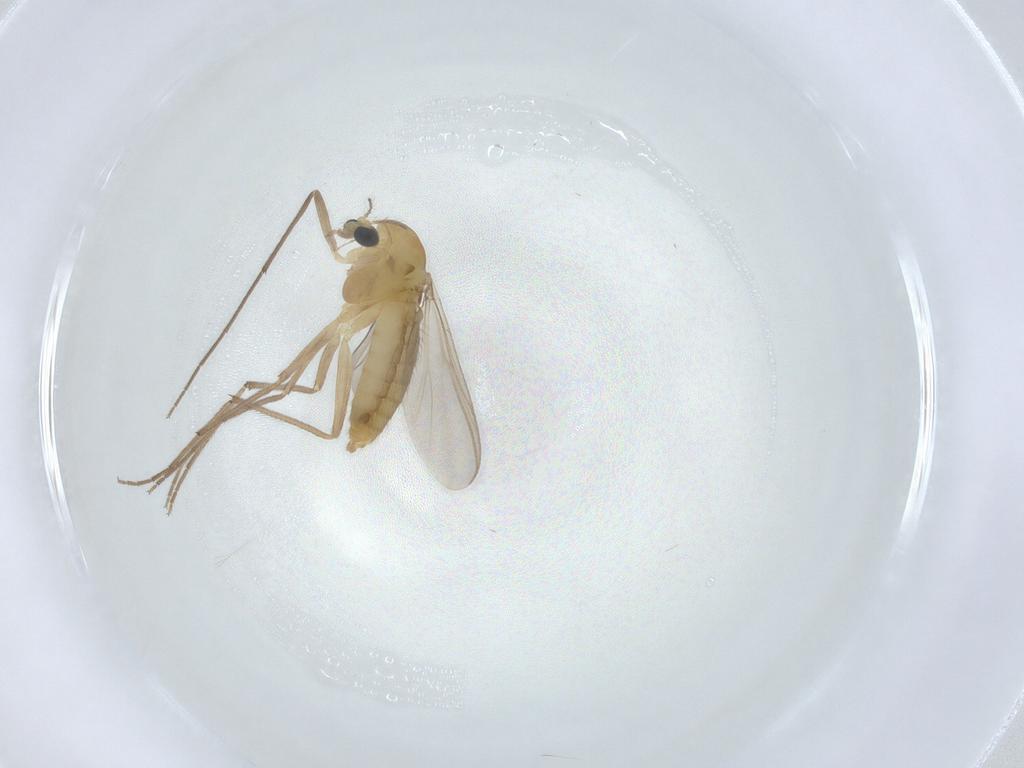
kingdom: Animalia
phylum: Arthropoda
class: Insecta
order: Diptera
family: Chironomidae
